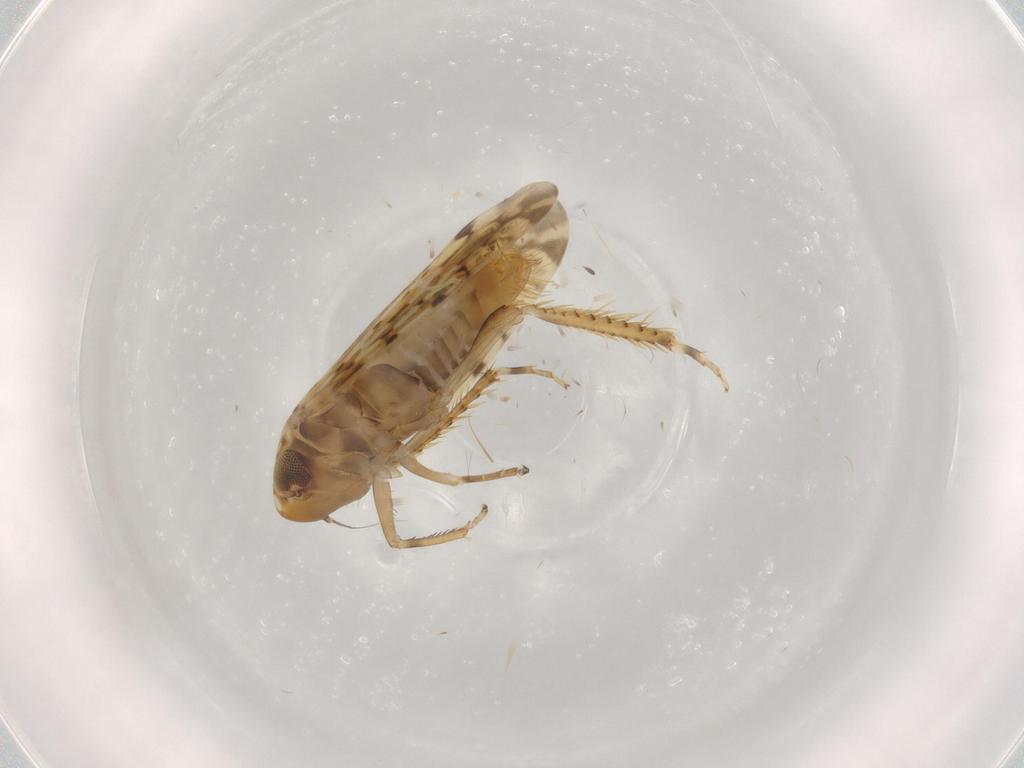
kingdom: Animalia
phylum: Arthropoda
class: Insecta
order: Hemiptera
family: Cicadellidae
